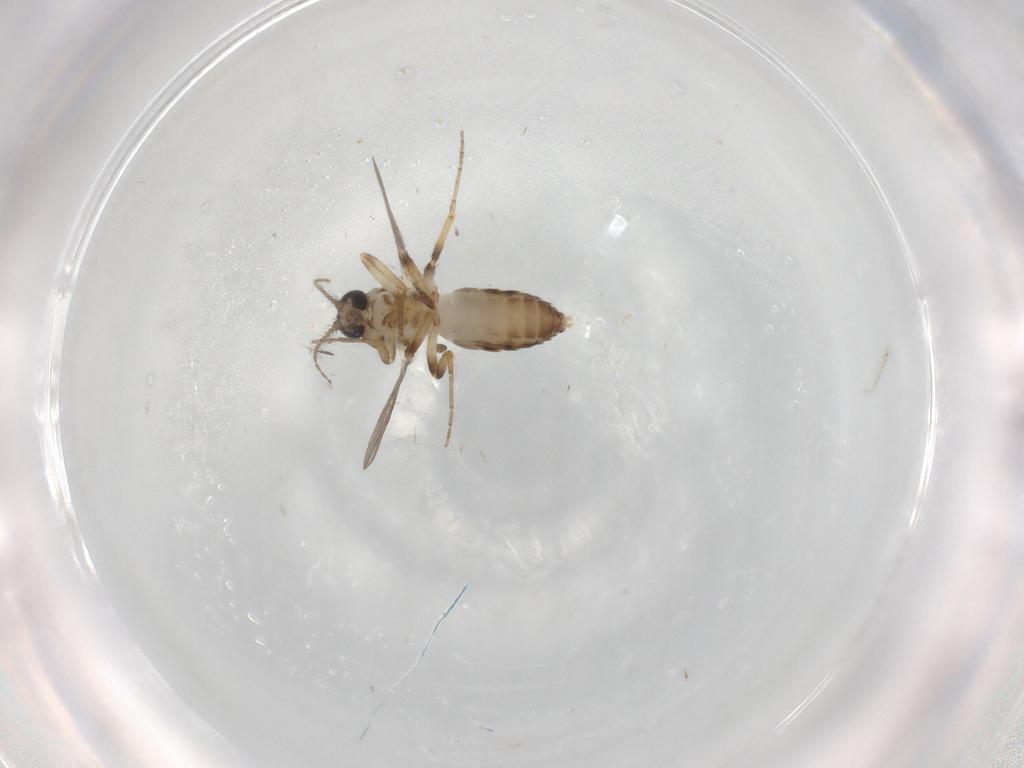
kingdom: Animalia
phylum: Arthropoda
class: Insecta
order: Diptera
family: Ceratopogonidae
